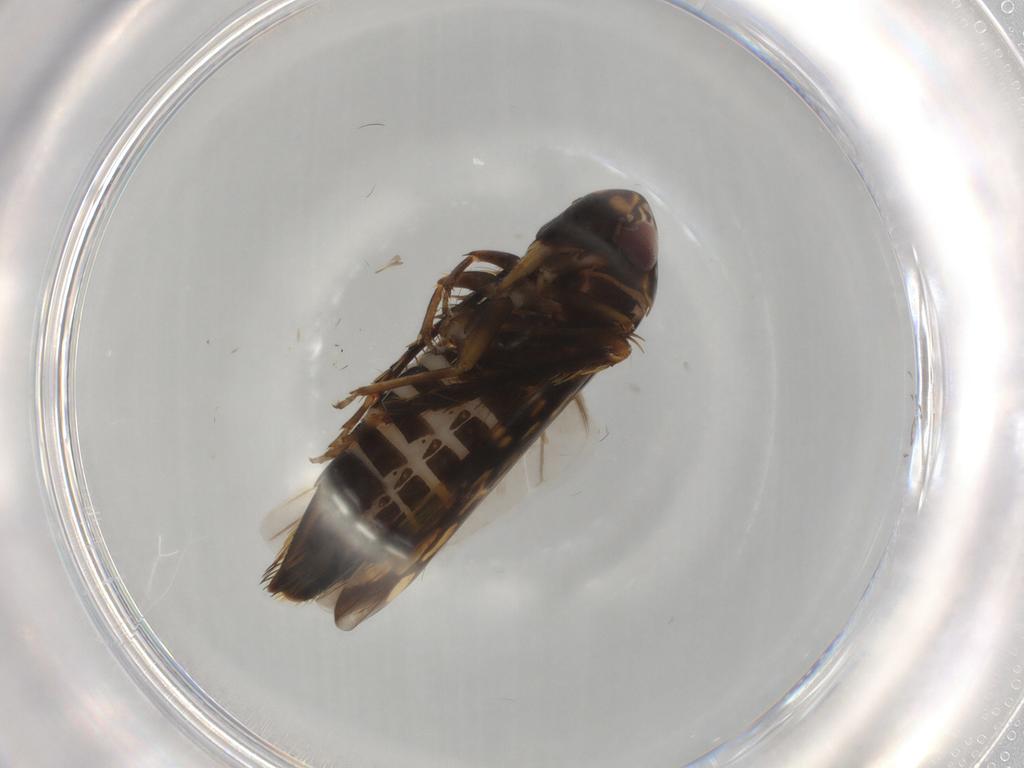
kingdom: Animalia
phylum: Arthropoda
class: Insecta
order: Hemiptera
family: Cicadellidae
